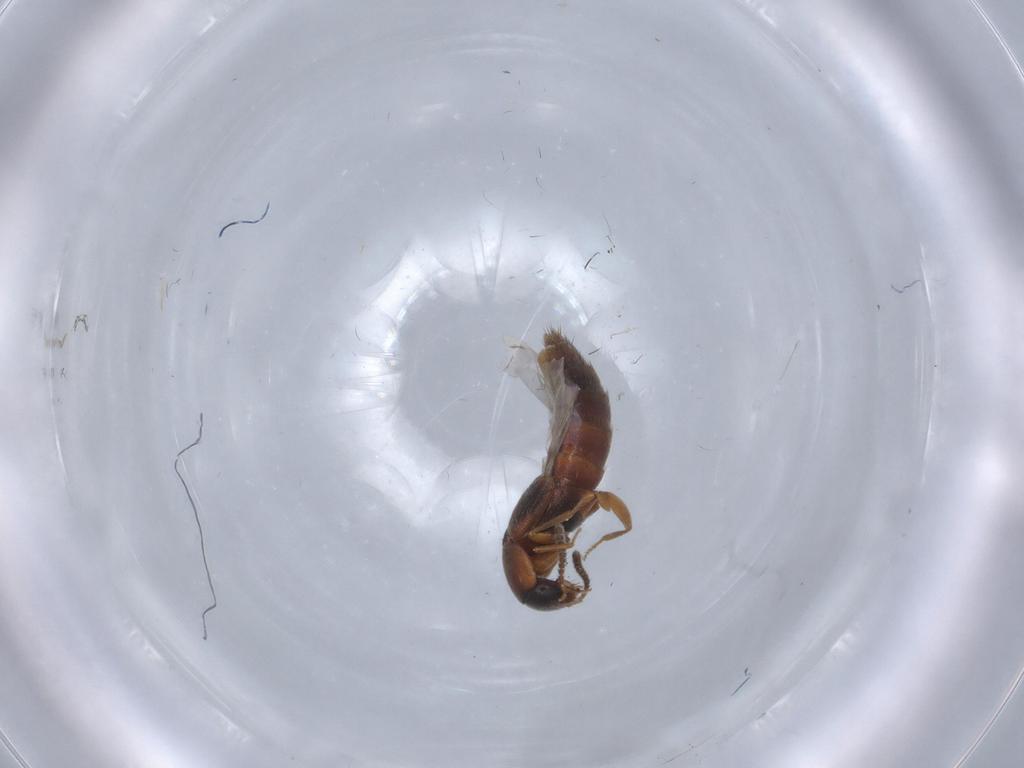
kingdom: Animalia
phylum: Arthropoda
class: Insecta
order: Coleoptera
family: Staphylinidae
